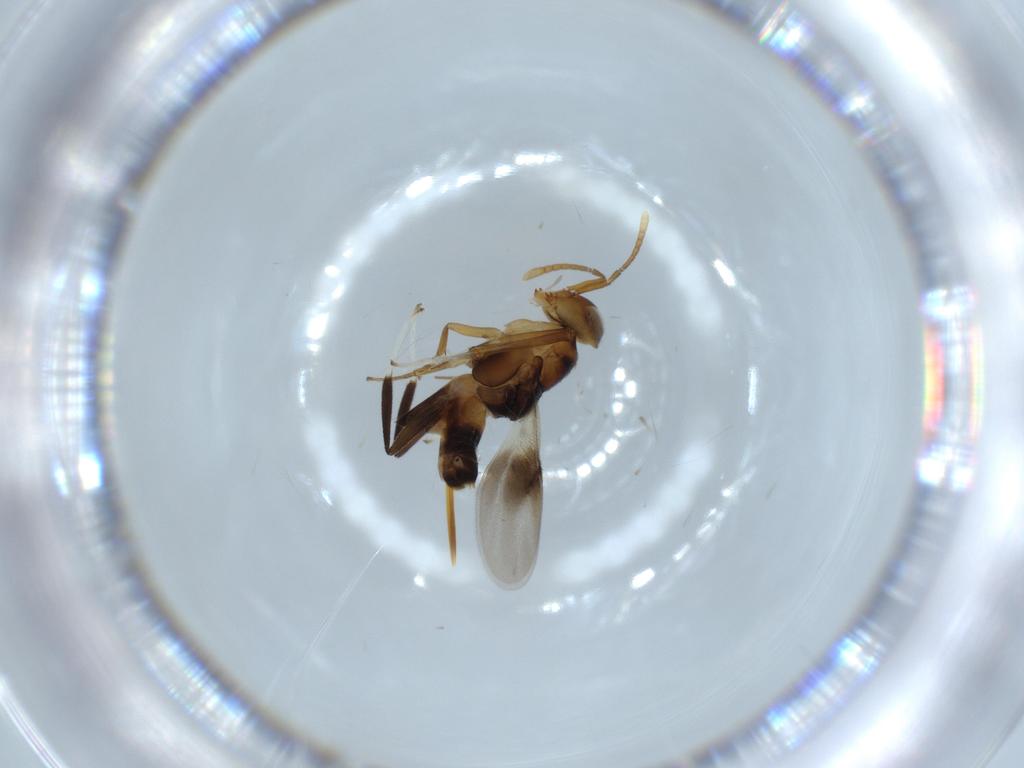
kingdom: Animalia
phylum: Arthropoda
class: Insecta
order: Hymenoptera
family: Encyrtidae
